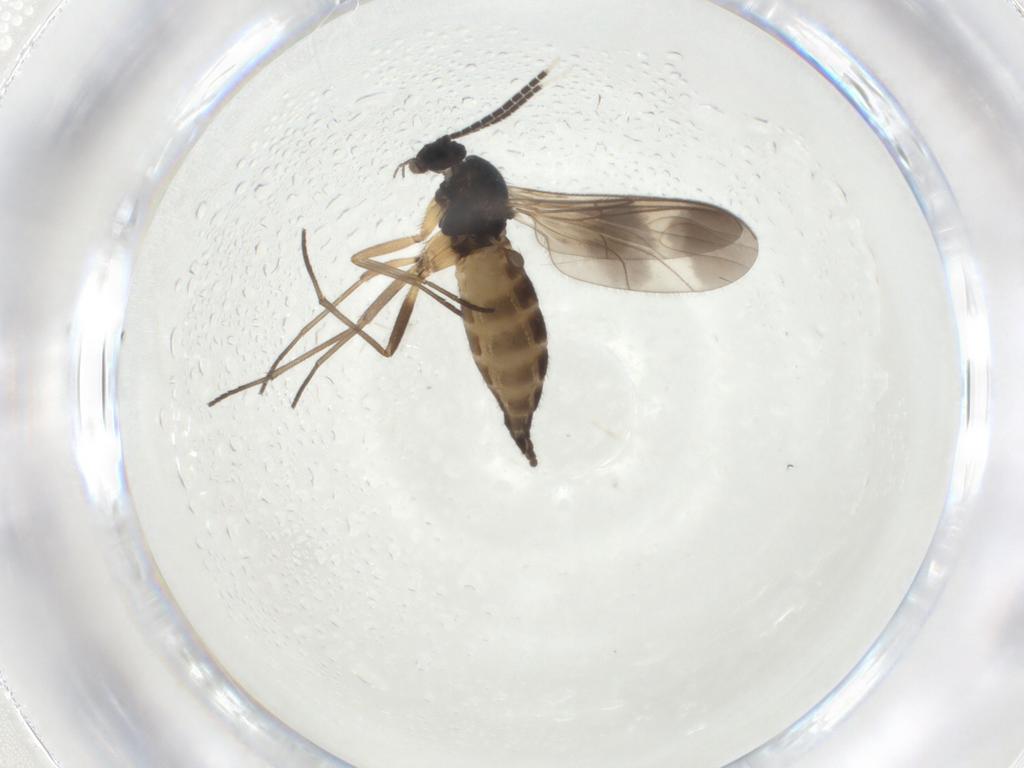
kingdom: Animalia
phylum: Arthropoda
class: Insecta
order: Diptera
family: Sciaridae
